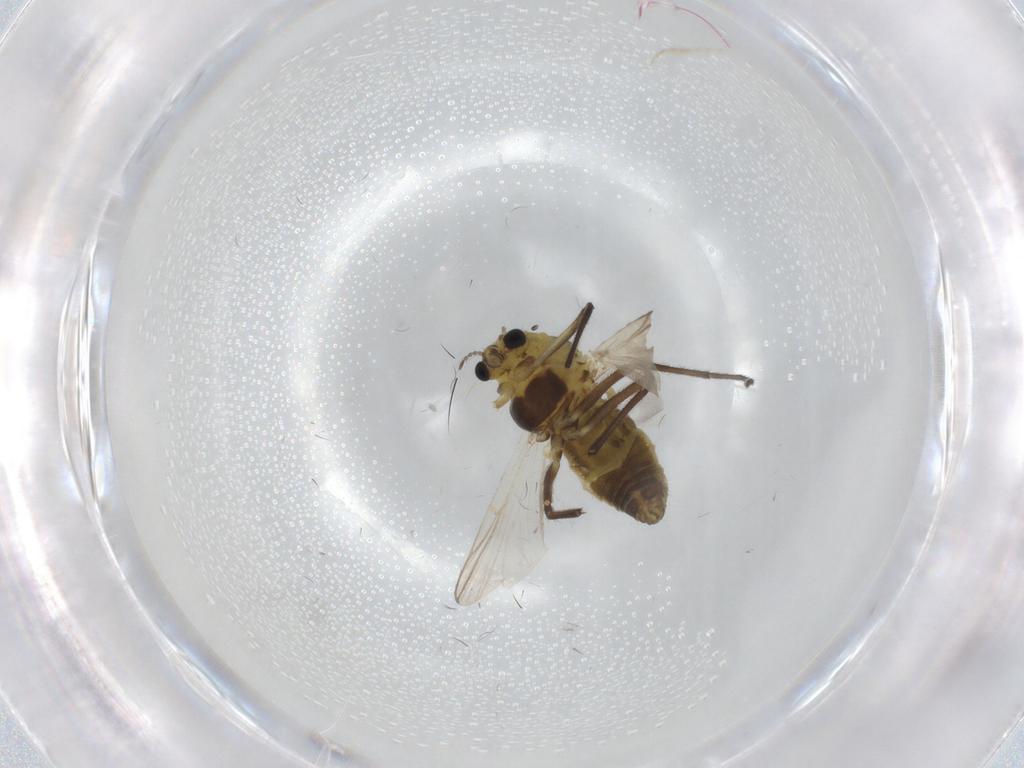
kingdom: Animalia
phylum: Arthropoda
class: Insecta
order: Diptera
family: Chironomidae
